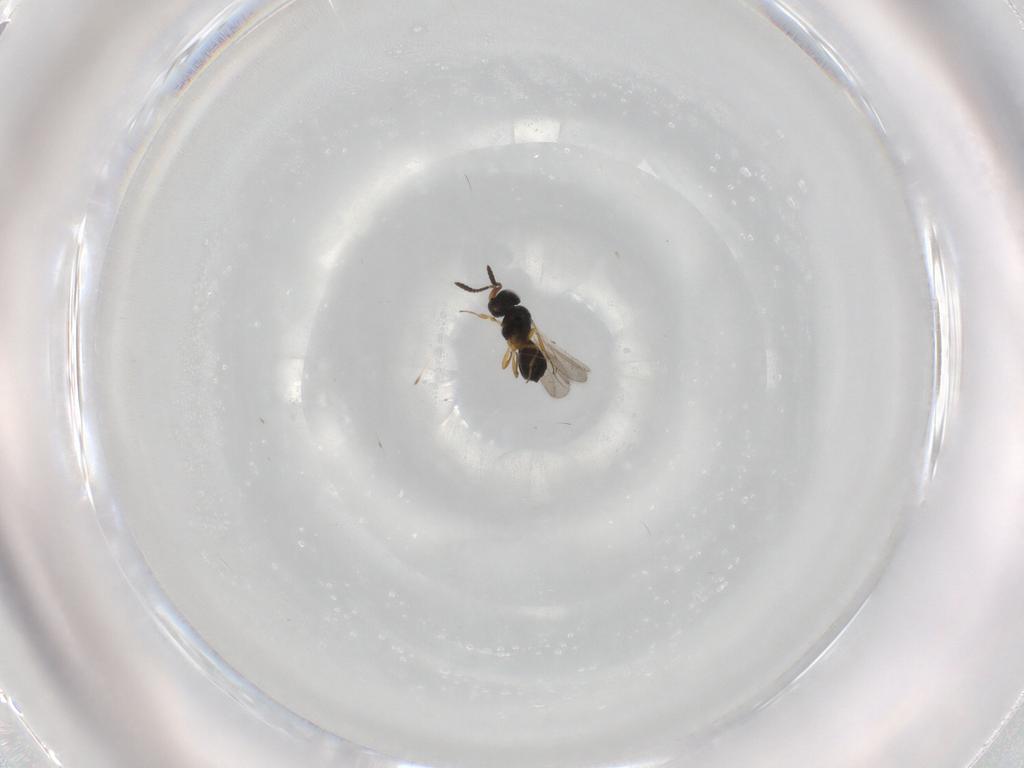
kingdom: Animalia
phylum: Arthropoda
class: Insecta
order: Hymenoptera
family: Scelionidae
